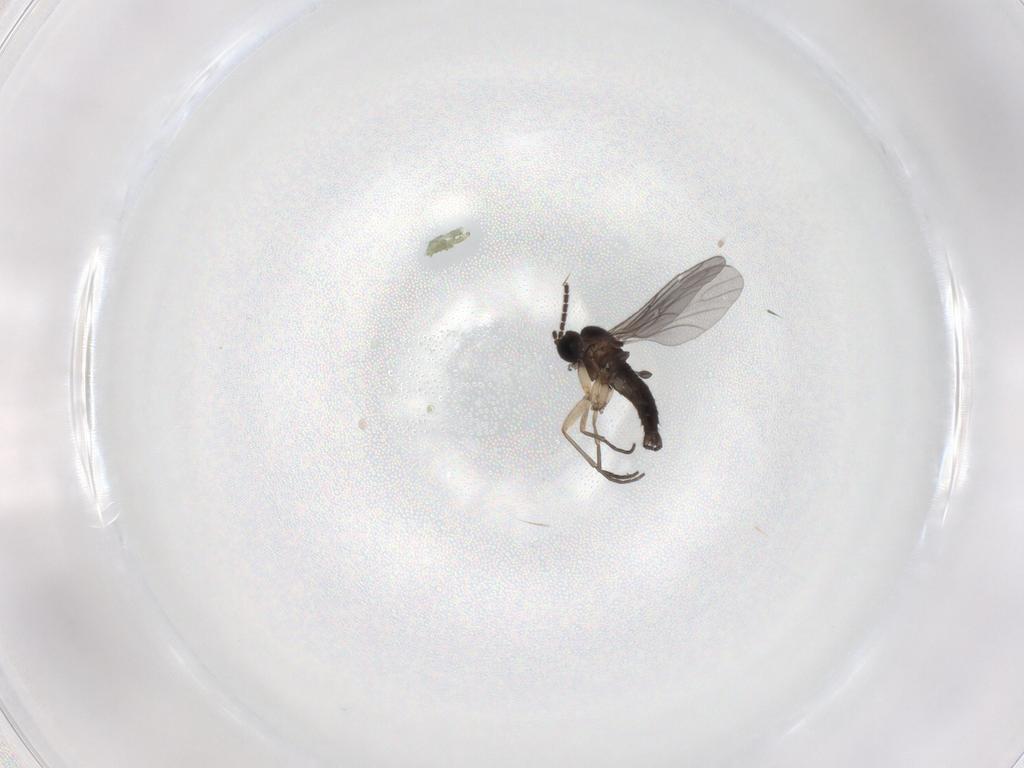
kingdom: Animalia
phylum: Arthropoda
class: Insecta
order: Diptera
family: Sciaridae
